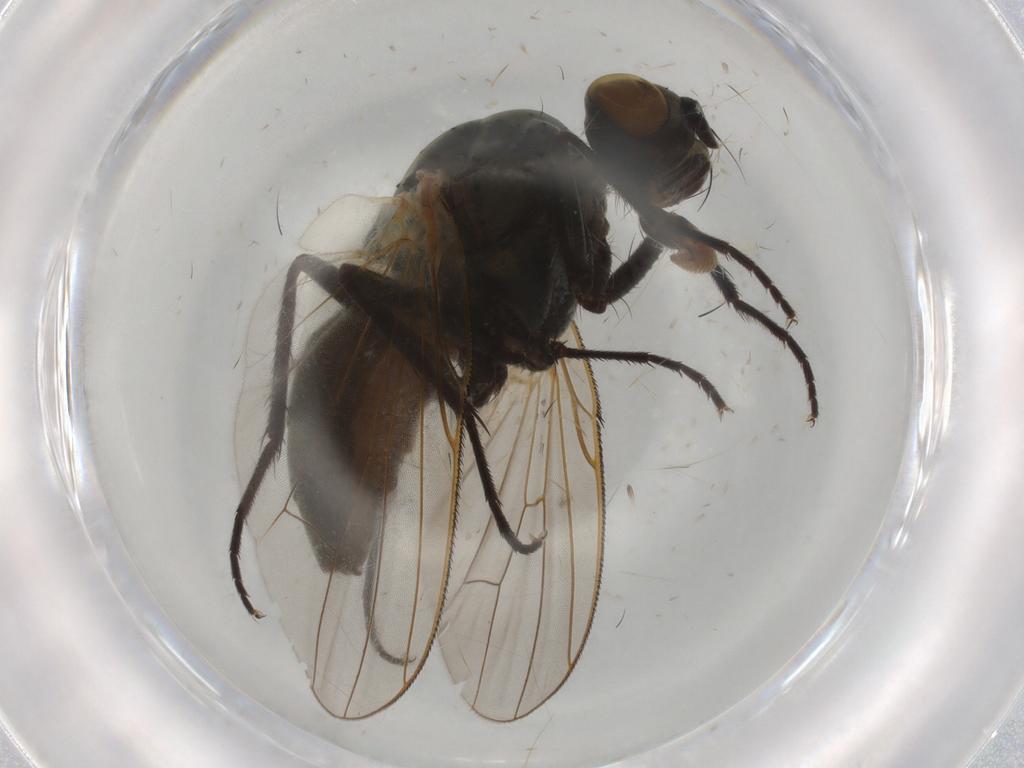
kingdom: Animalia
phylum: Arthropoda
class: Insecta
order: Diptera
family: Anthomyiidae
